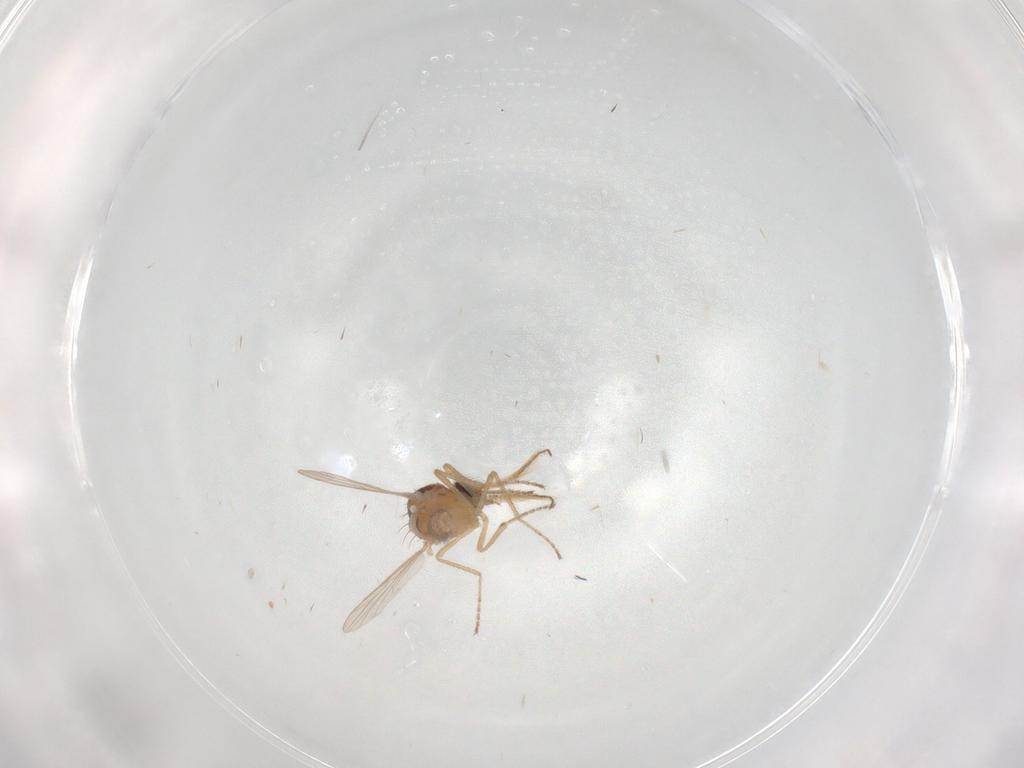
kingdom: Animalia
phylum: Arthropoda
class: Insecta
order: Diptera
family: Ceratopogonidae
